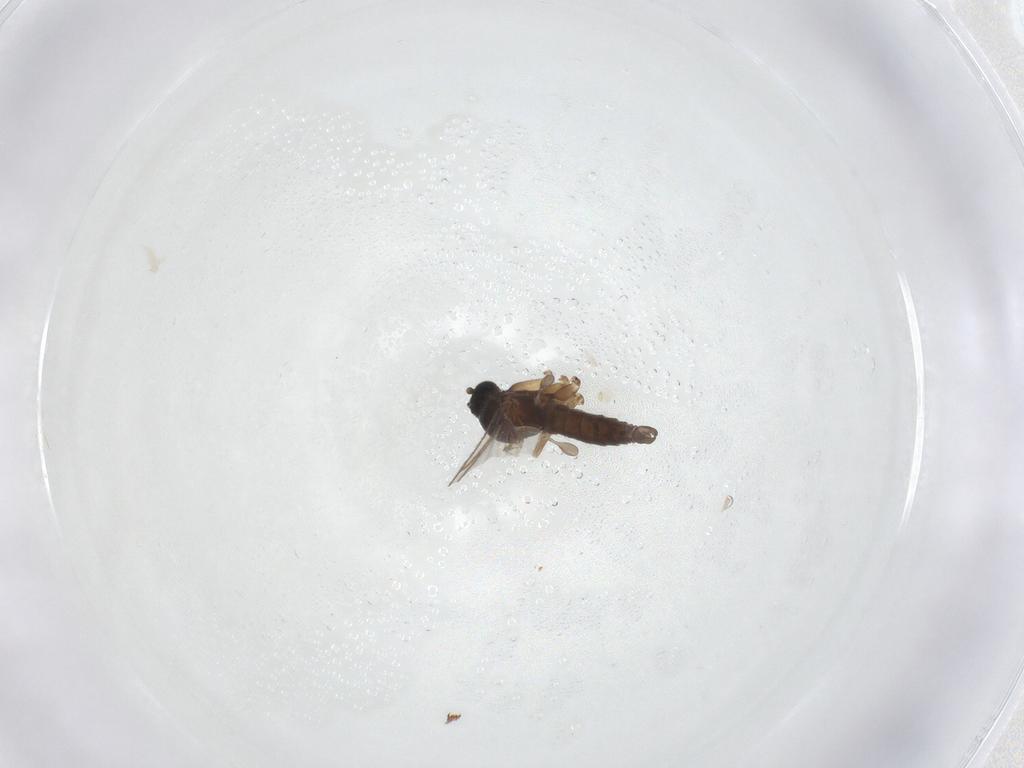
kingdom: Animalia
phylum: Arthropoda
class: Insecta
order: Diptera
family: Sciaridae
